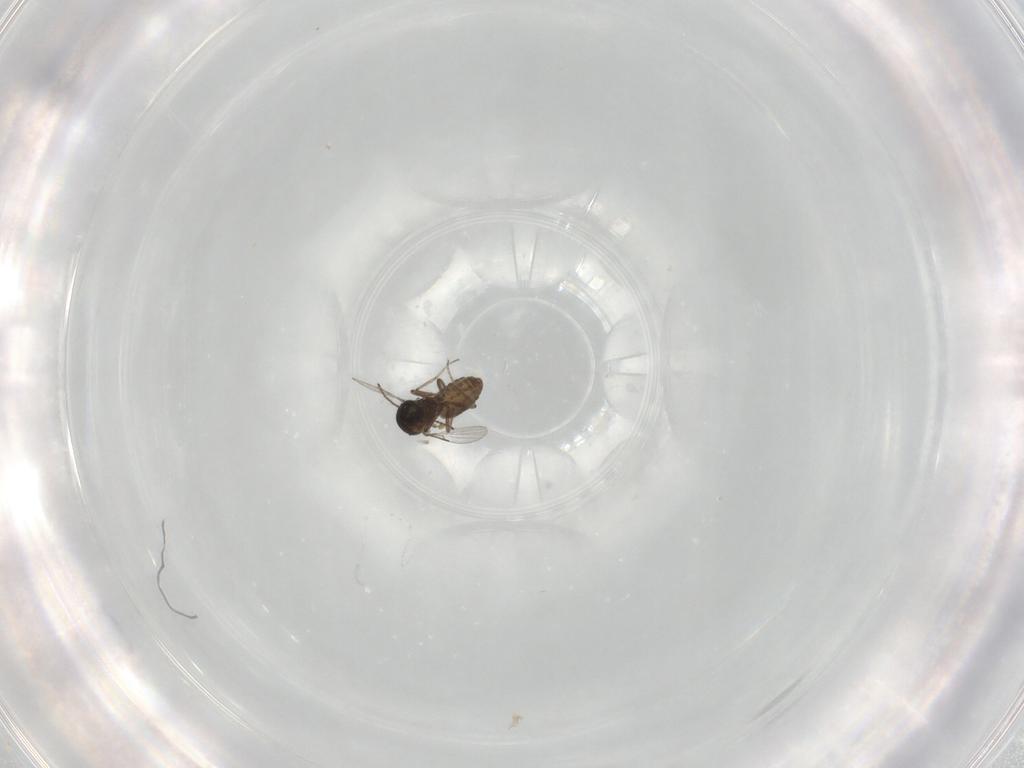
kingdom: Animalia
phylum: Arthropoda
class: Insecta
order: Diptera
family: Ceratopogonidae
